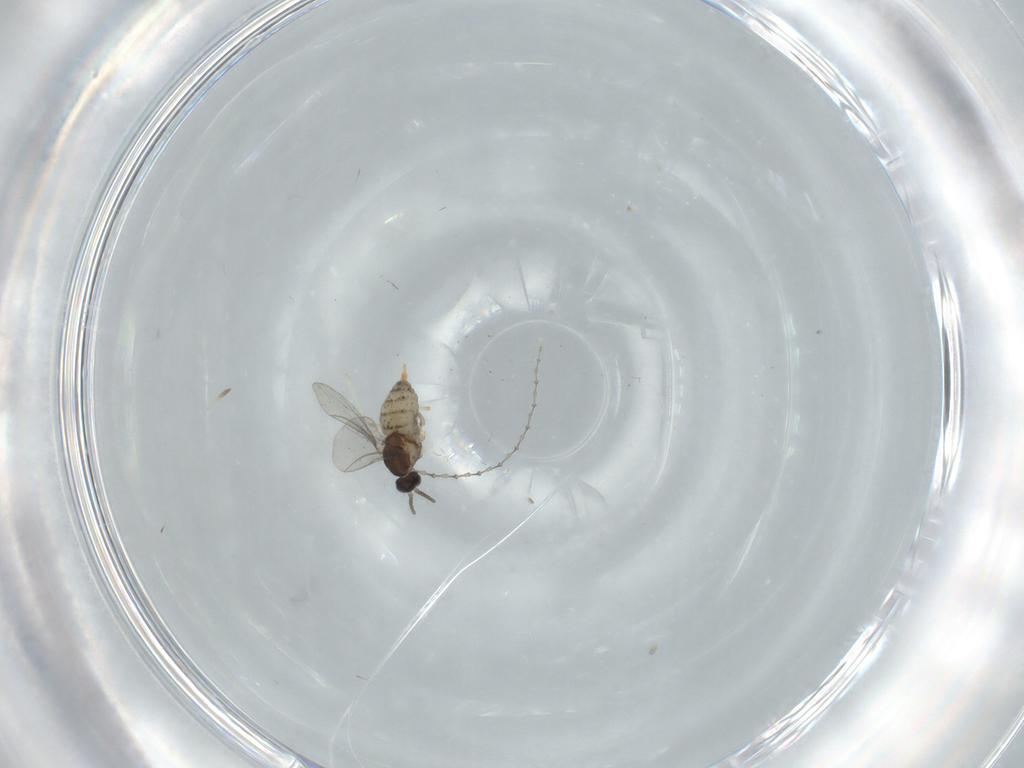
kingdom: Animalia
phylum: Arthropoda
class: Insecta
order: Diptera
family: Cecidomyiidae
